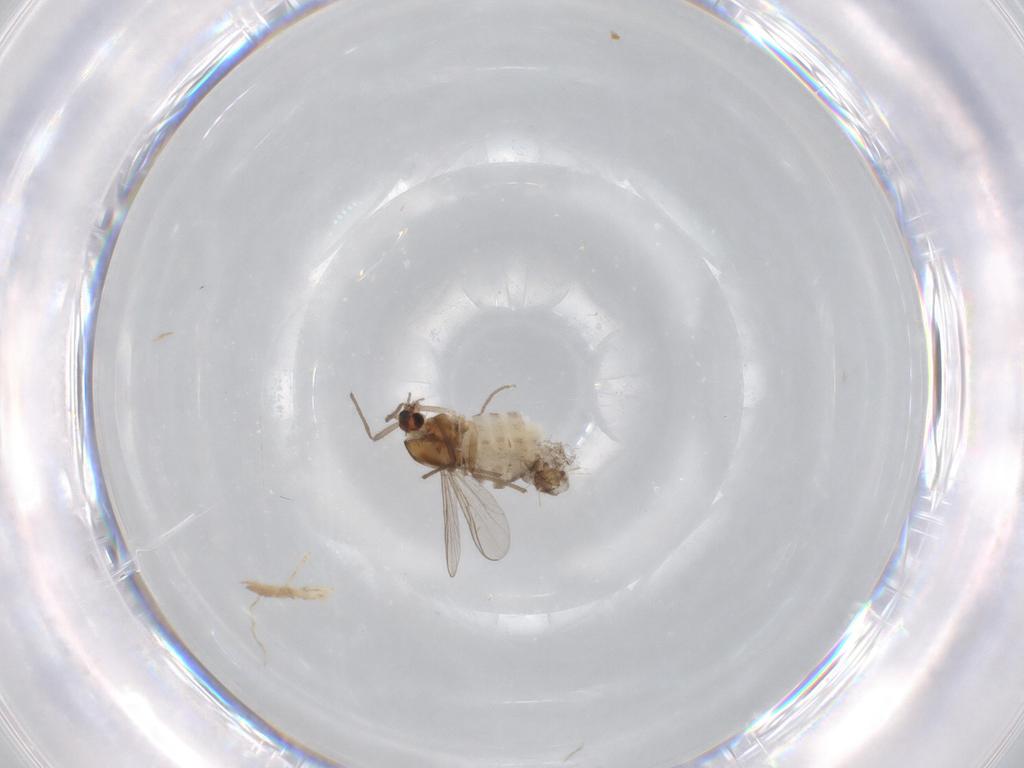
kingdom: Animalia
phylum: Arthropoda
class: Insecta
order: Diptera
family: Chironomidae
